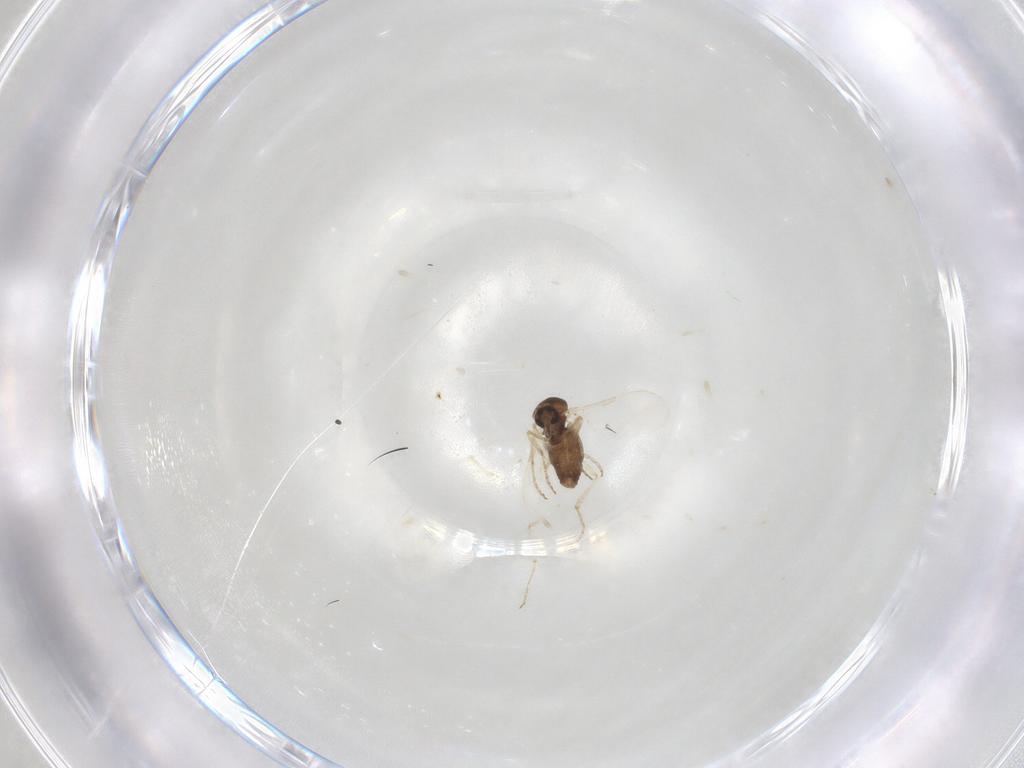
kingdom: Animalia
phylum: Arthropoda
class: Insecta
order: Diptera
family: Ceratopogonidae
